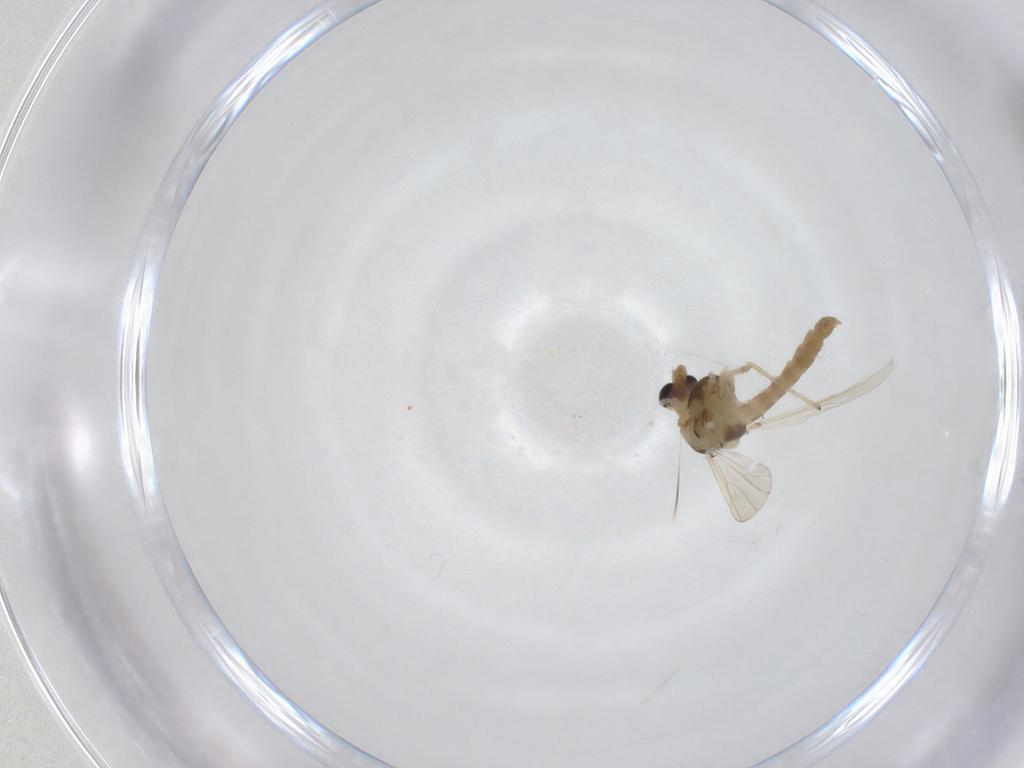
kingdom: Animalia
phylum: Arthropoda
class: Insecta
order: Diptera
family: Chironomidae
